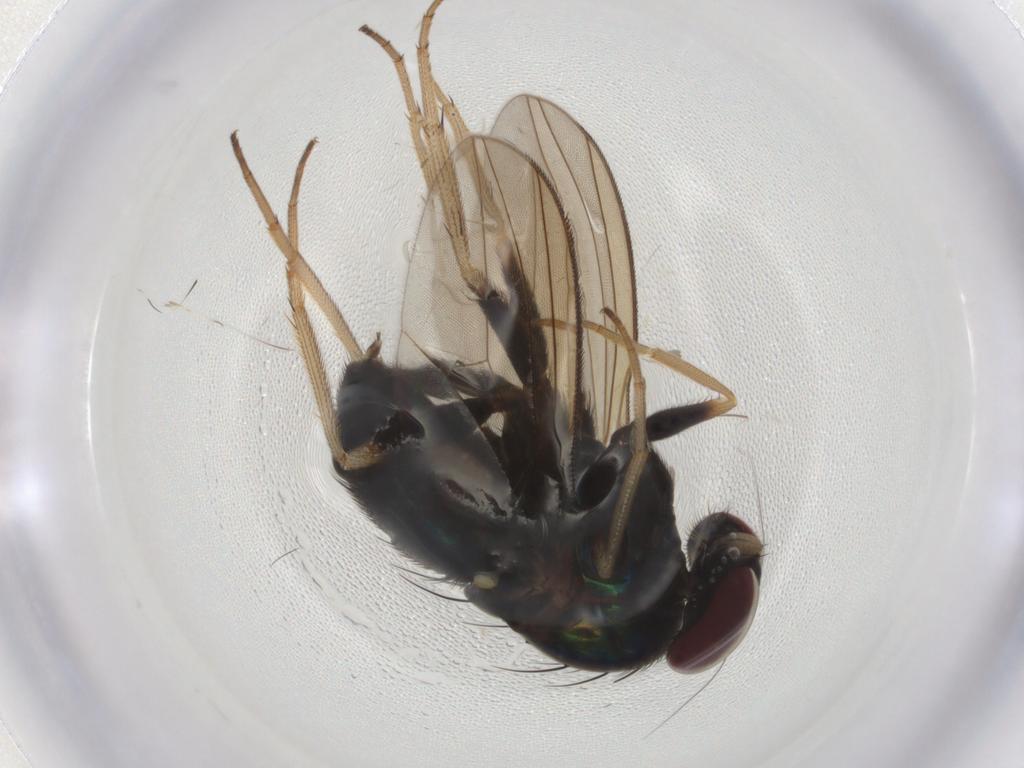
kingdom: Animalia
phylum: Arthropoda
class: Insecta
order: Diptera
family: Dolichopodidae
